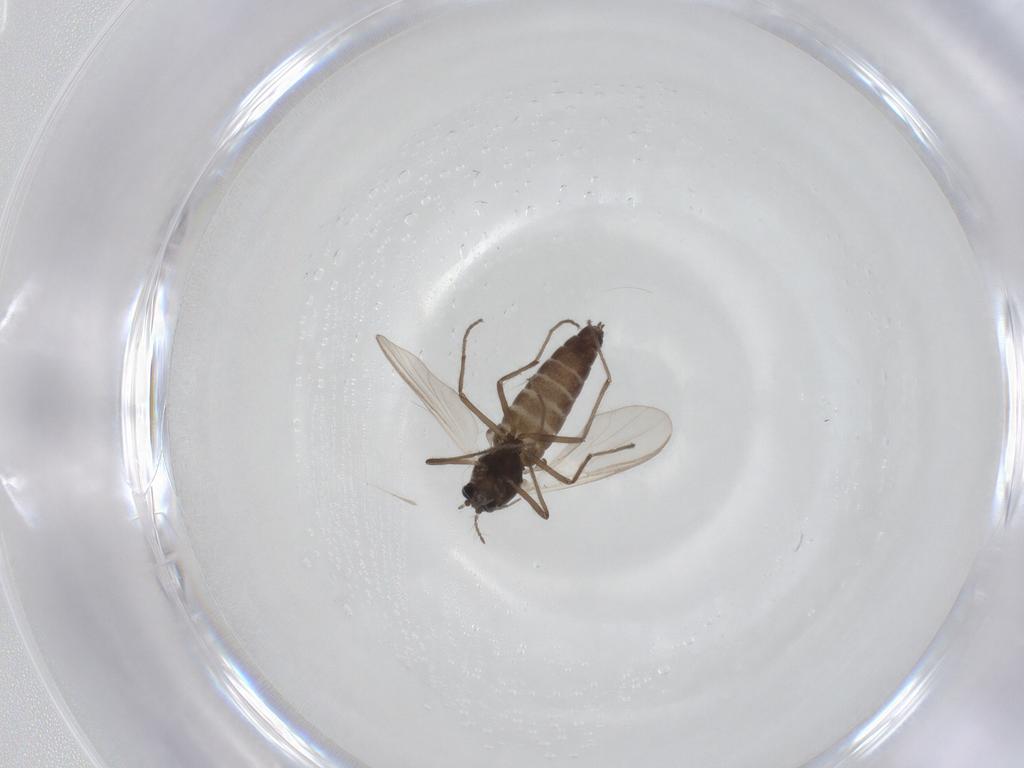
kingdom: Animalia
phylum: Arthropoda
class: Insecta
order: Diptera
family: Chironomidae
